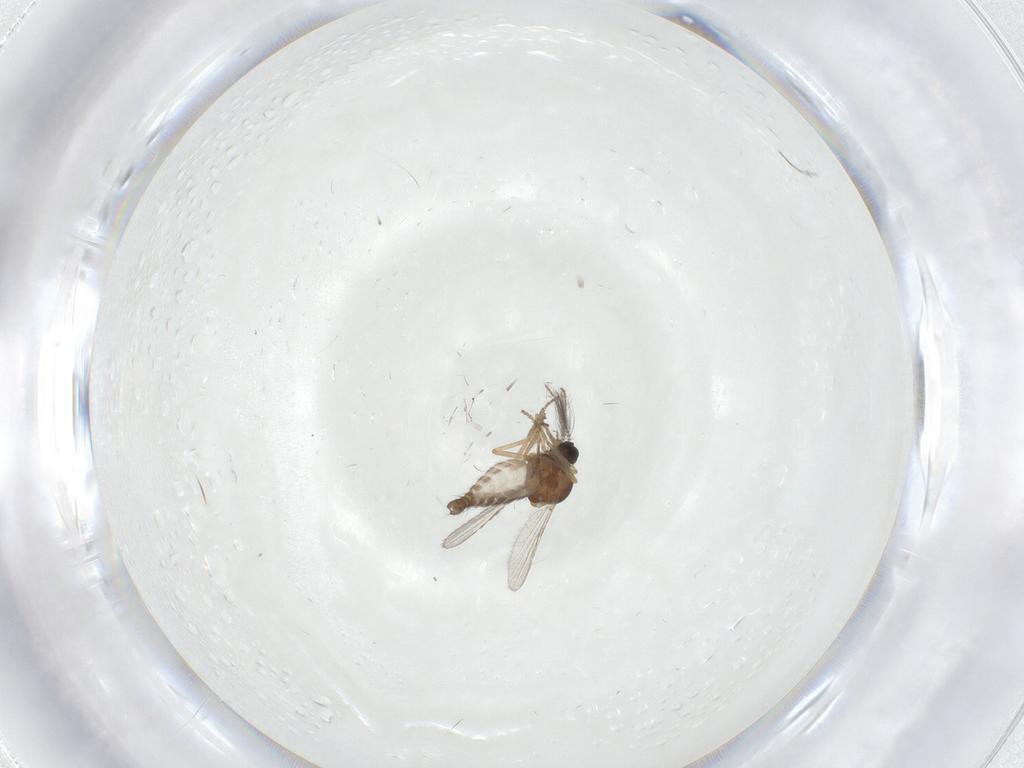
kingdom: Animalia
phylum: Arthropoda
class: Insecta
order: Diptera
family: Ceratopogonidae
